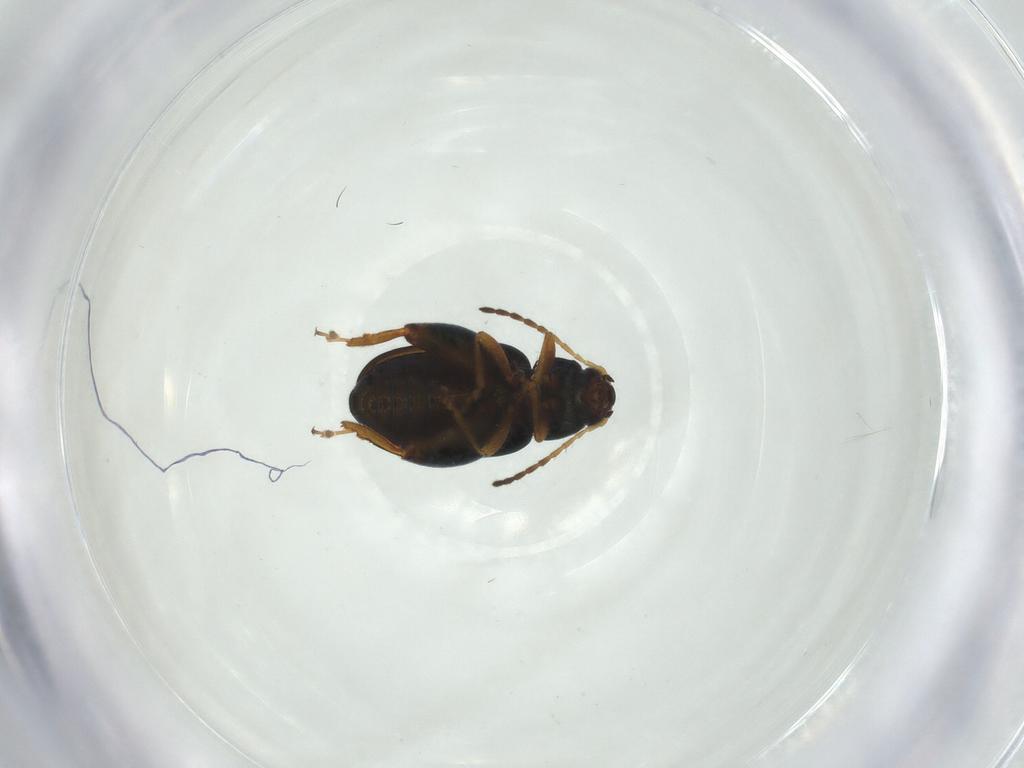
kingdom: Animalia
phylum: Arthropoda
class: Insecta
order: Coleoptera
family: Chrysomelidae
